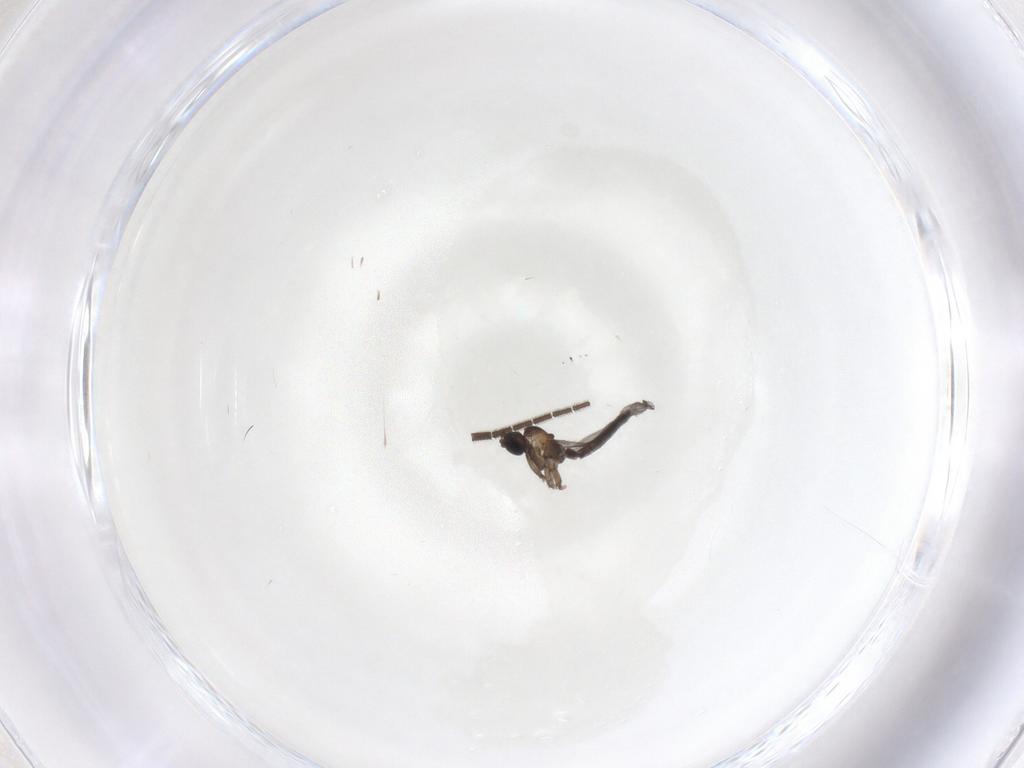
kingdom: Animalia
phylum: Arthropoda
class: Insecta
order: Diptera
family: Sciaridae
